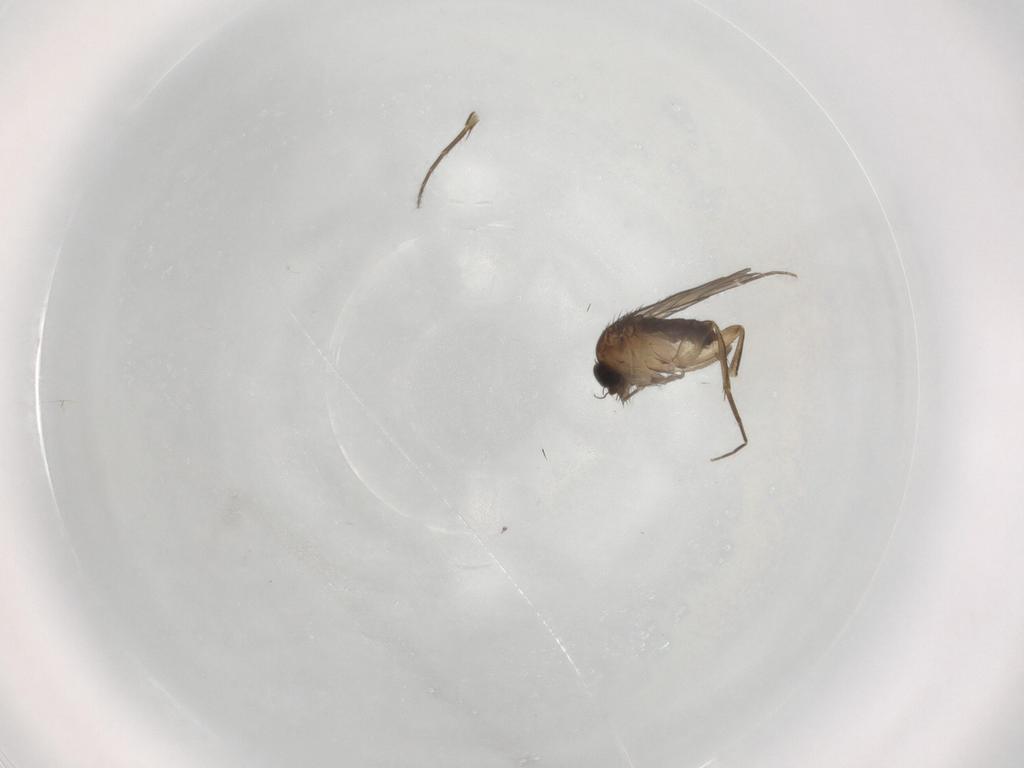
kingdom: Animalia
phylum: Arthropoda
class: Insecta
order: Diptera
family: Phoridae
